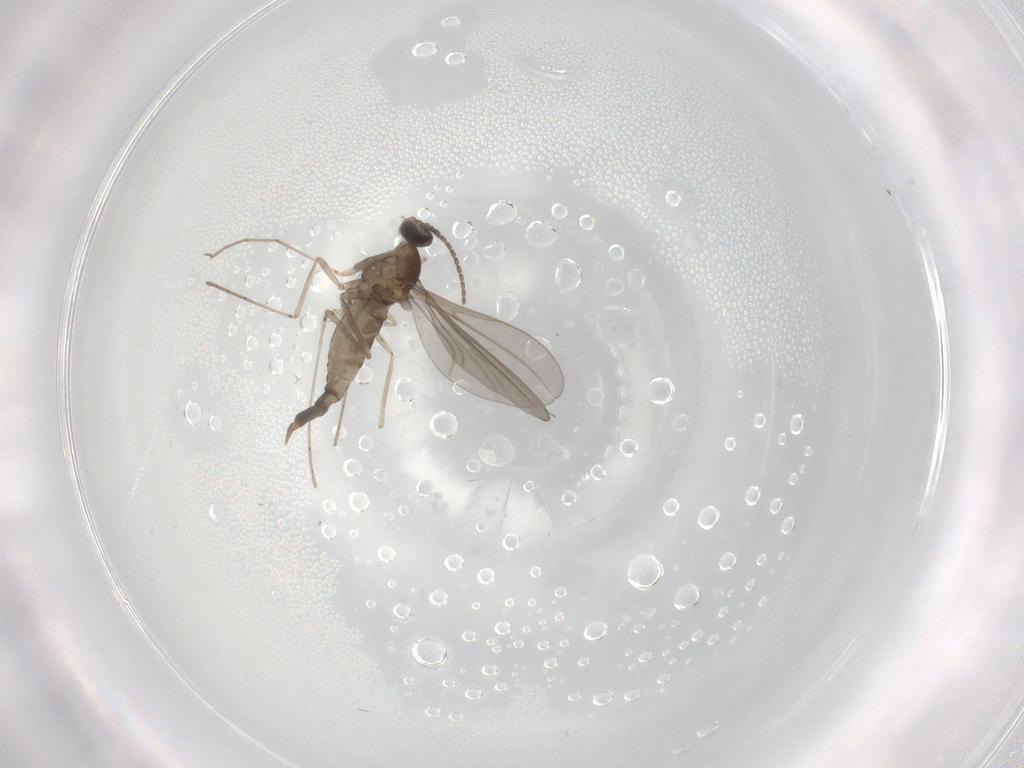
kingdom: Animalia
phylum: Arthropoda
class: Insecta
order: Diptera
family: Cecidomyiidae
